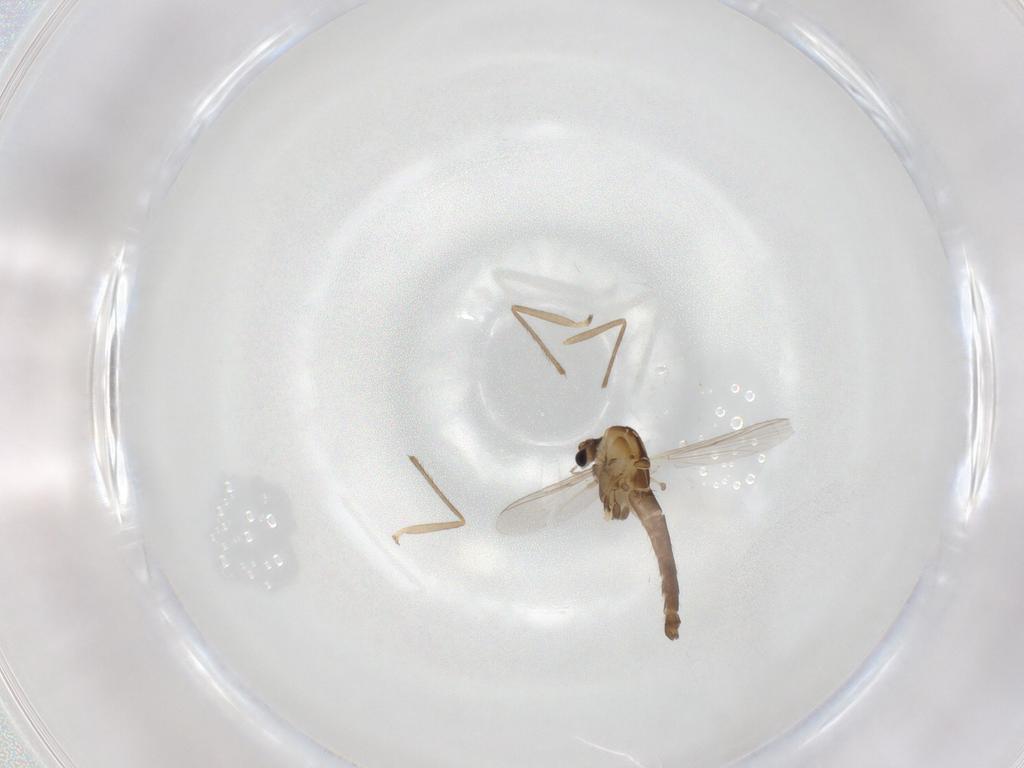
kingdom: Animalia
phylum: Arthropoda
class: Insecta
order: Diptera
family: Chironomidae
